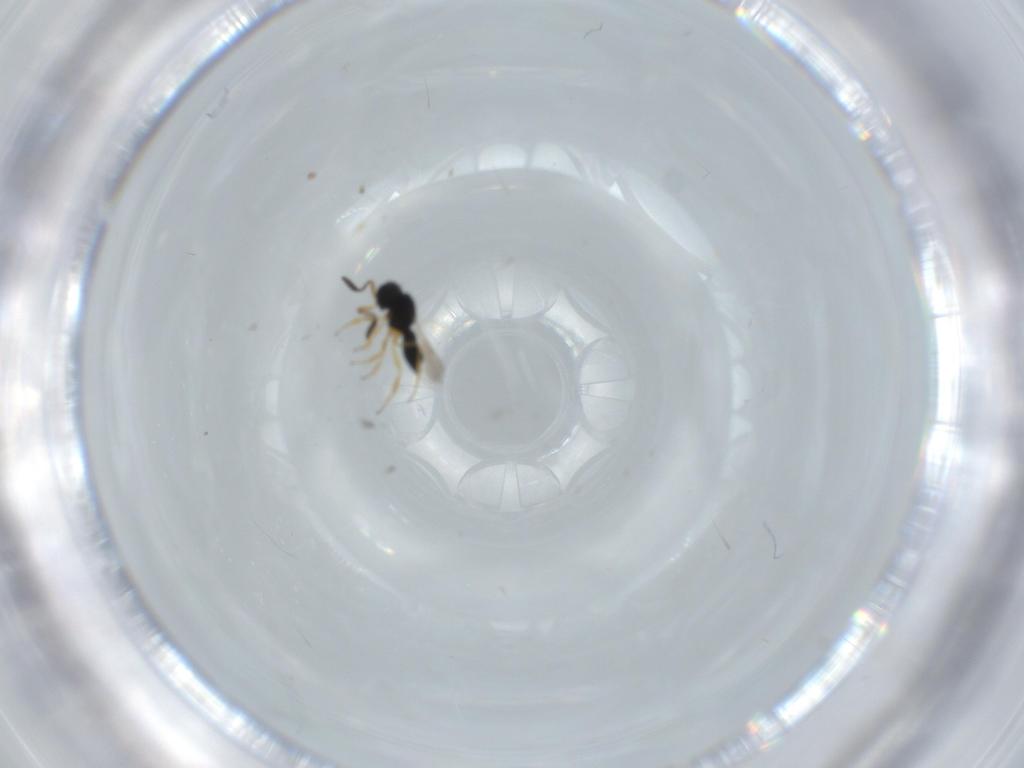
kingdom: Animalia
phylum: Arthropoda
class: Insecta
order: Hymenoptera
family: Scelionidae
